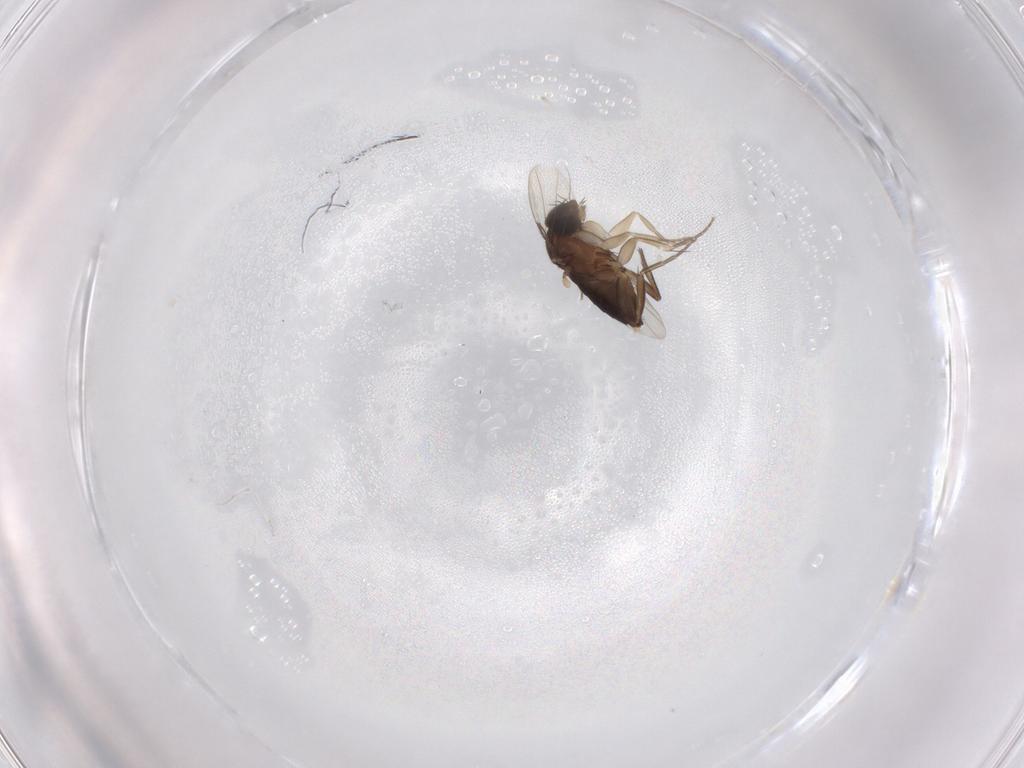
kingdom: Animalia
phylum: Arthropoda
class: Insecta
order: Diptera
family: Phoridae
